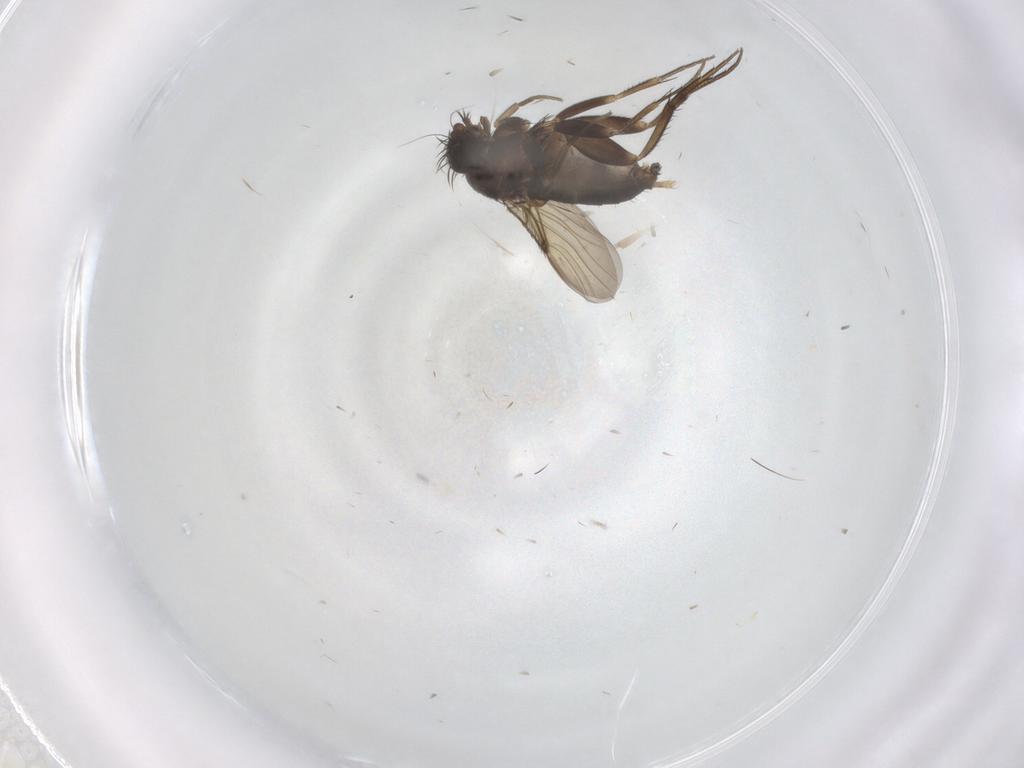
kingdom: Animalia
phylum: Arthropoda
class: Insecta
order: Diptera
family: Phoridae
